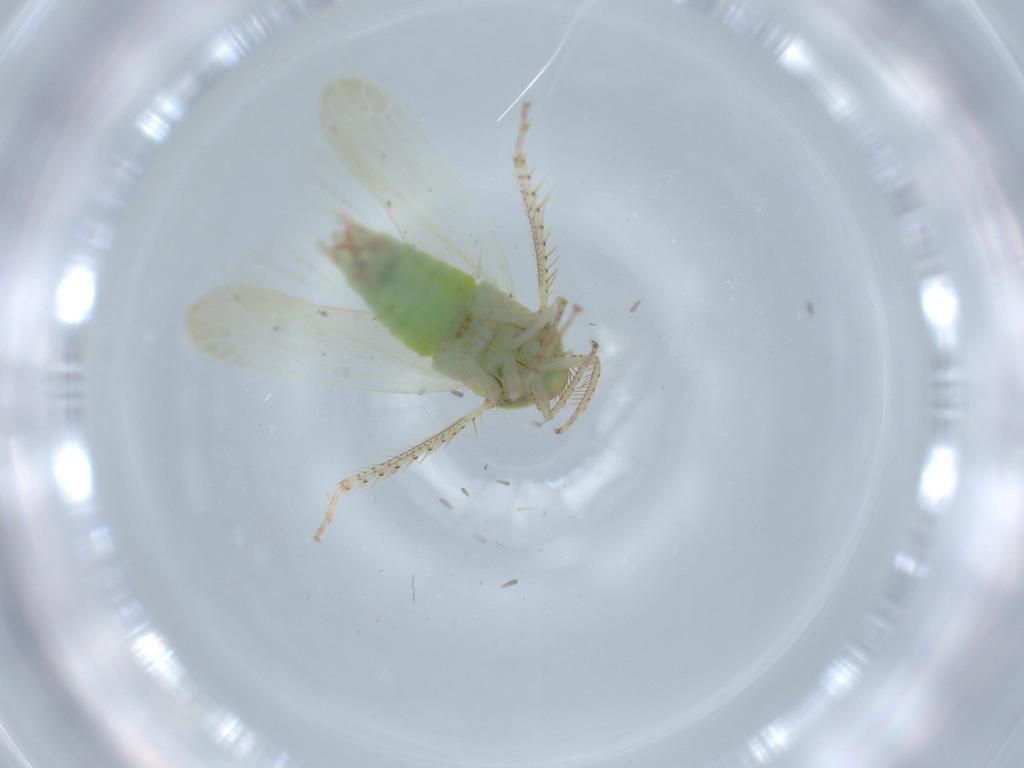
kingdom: Animalia
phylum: Arthropoda
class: Insecta
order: Hemiptera
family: Cicadellidae
